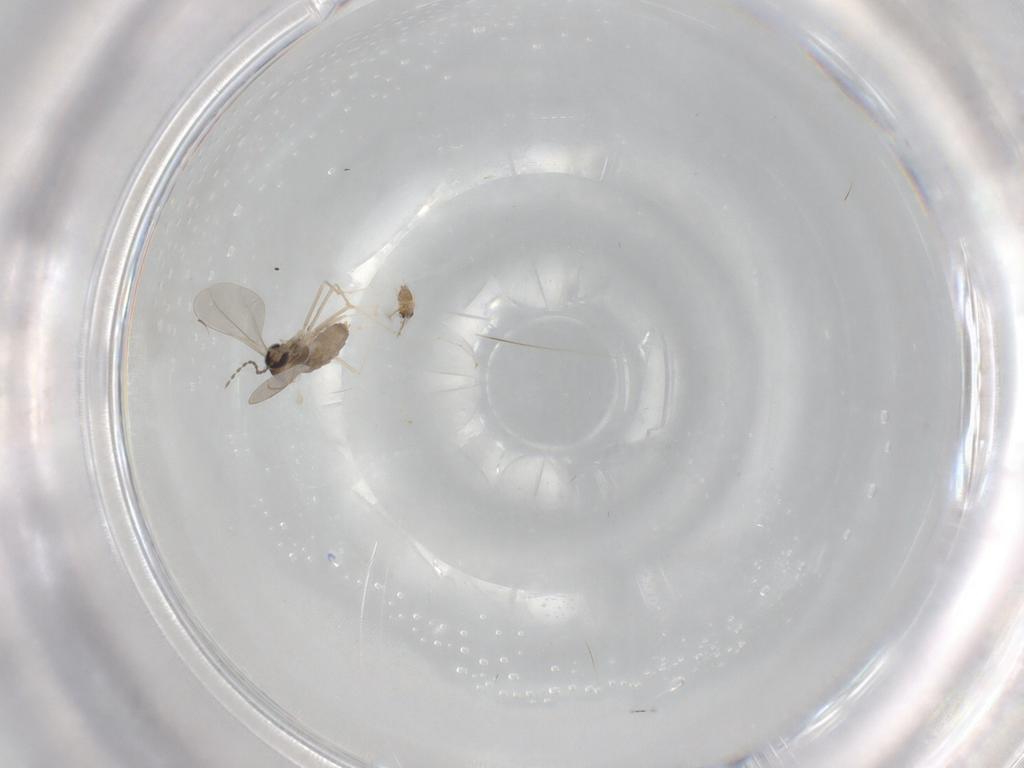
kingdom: Animalia
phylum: Arthropoda
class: Insecta
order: Diptera
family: Cecidomyiidae
